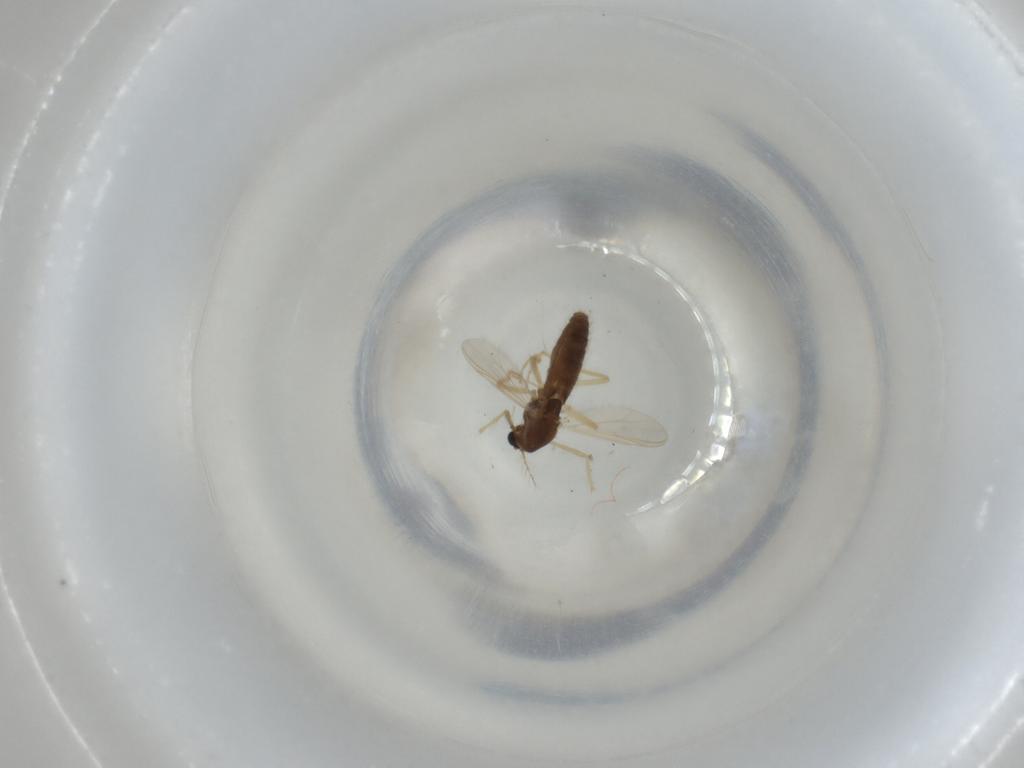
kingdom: Animalia
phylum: Arthropoda
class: Insecta
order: Diptera
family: Chironomidae
